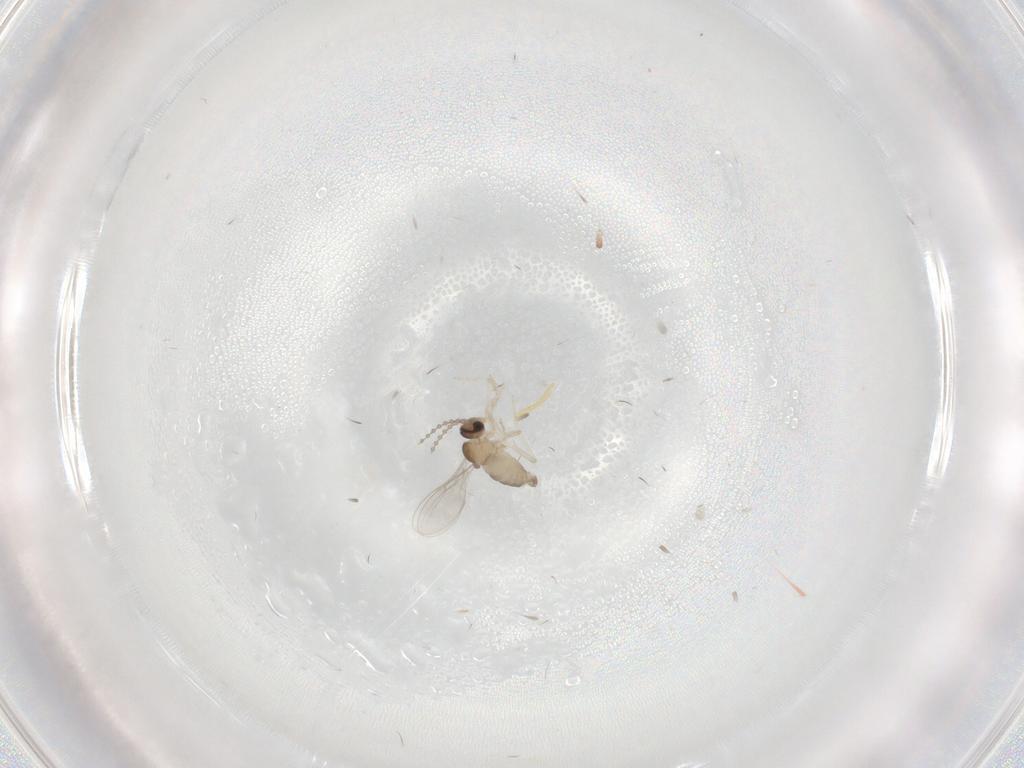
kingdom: Animalia
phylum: Arthropoda
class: Insecta
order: Diptera
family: Cecidomyiidae
